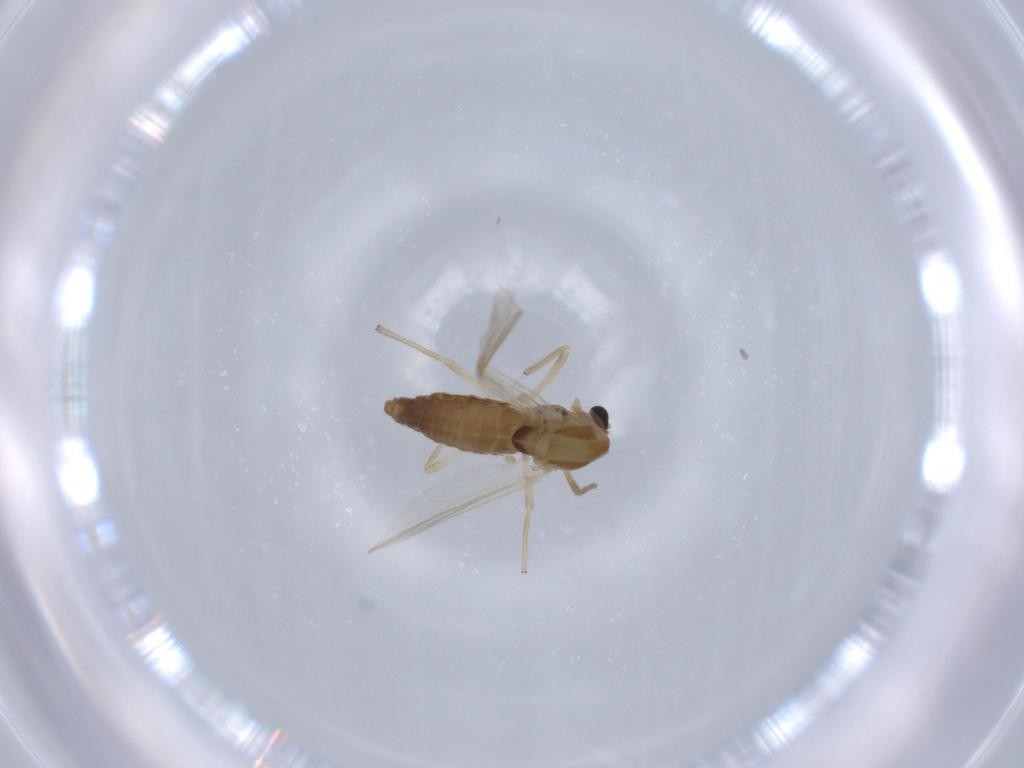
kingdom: Animalia
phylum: Arthropoda
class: Insecta
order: Diptera
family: Chironomidae
